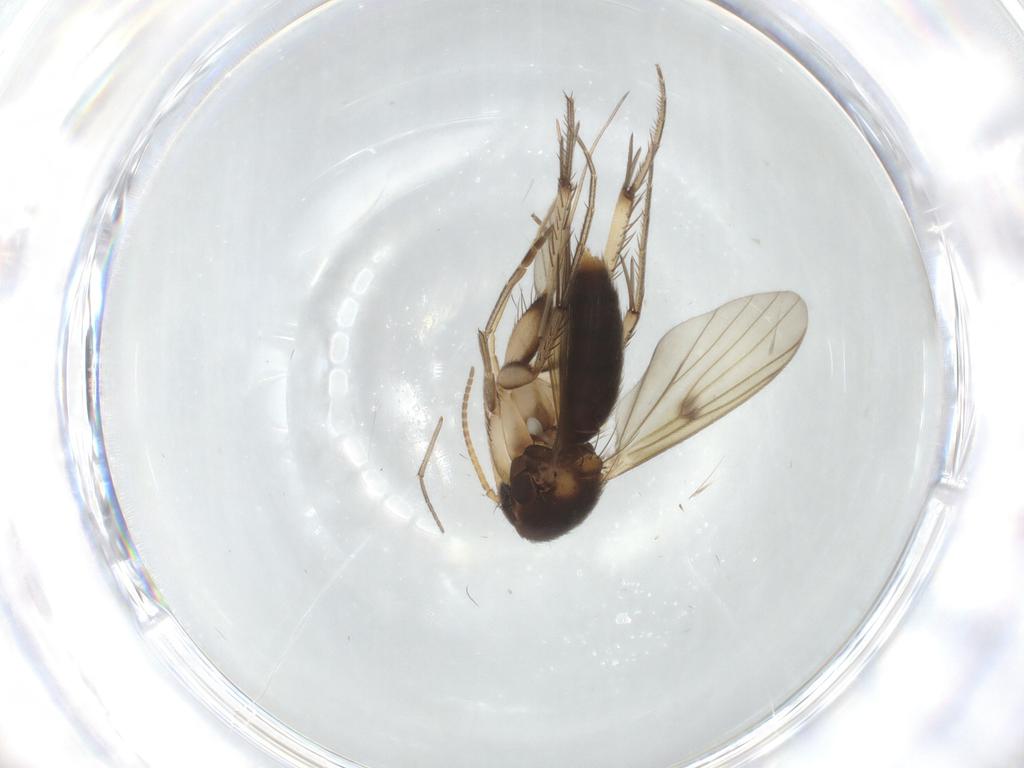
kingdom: Animalia
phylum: Arthropoda
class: Insecta
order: Diptera
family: Mycetophilidae
